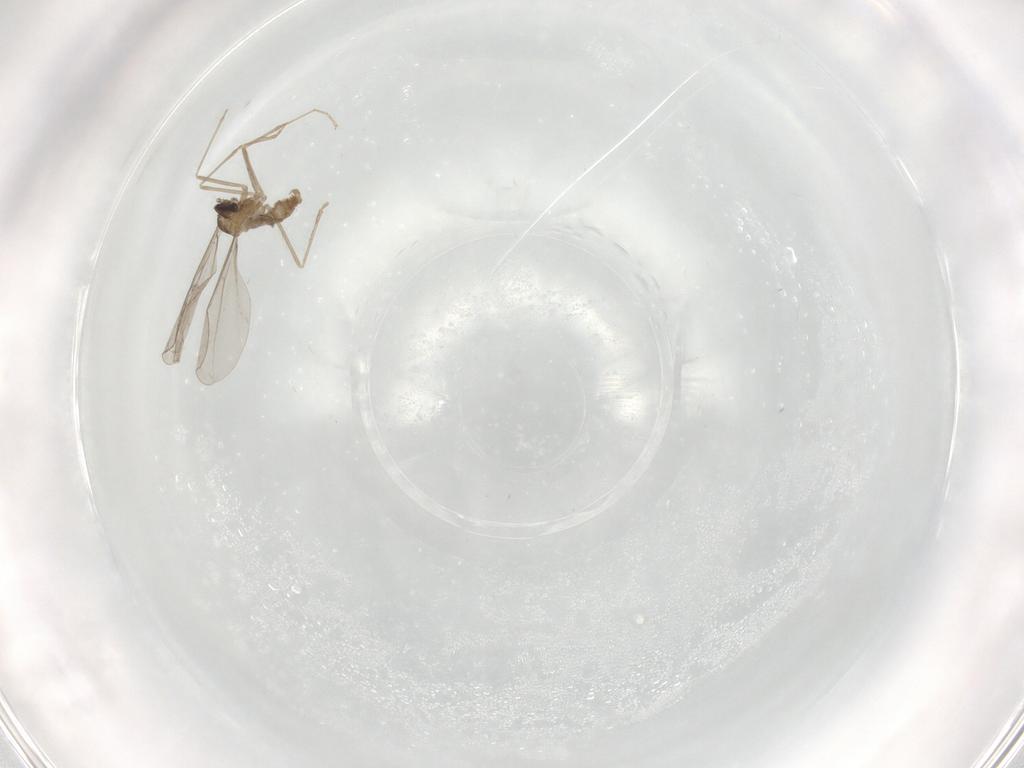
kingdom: Animalia
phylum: Arthropoda
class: Insecta
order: Diptera
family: Cecidomyiidae
